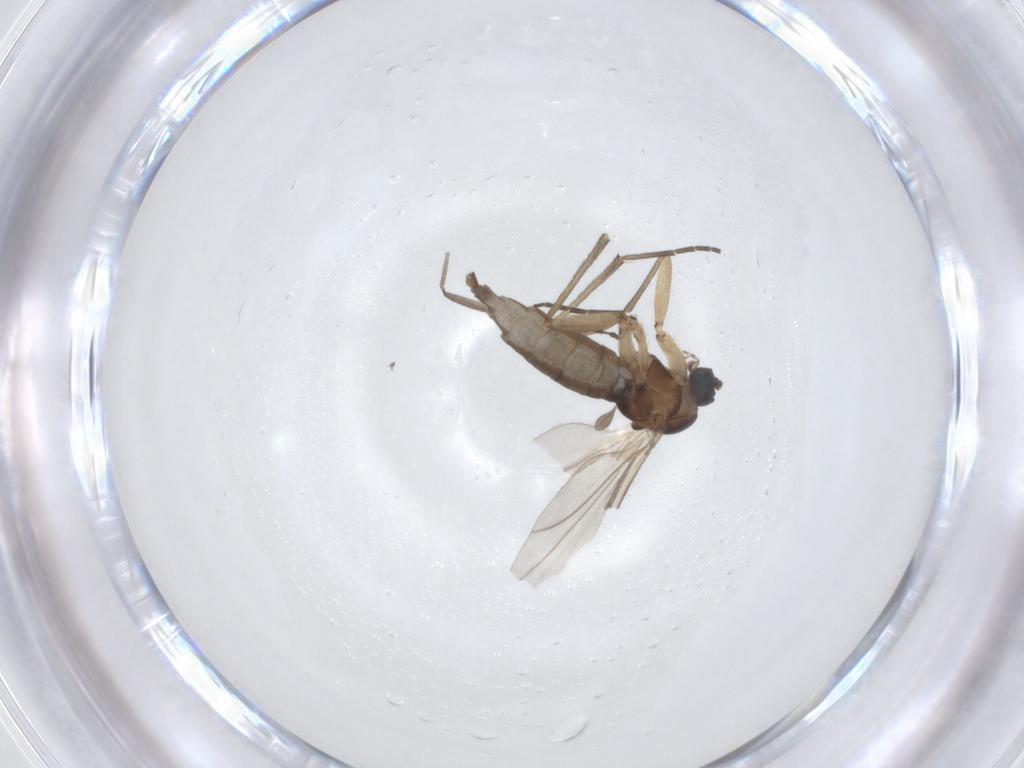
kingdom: Animalia
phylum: Arthropoda
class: Insecta
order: Diptera
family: Sciaridae
